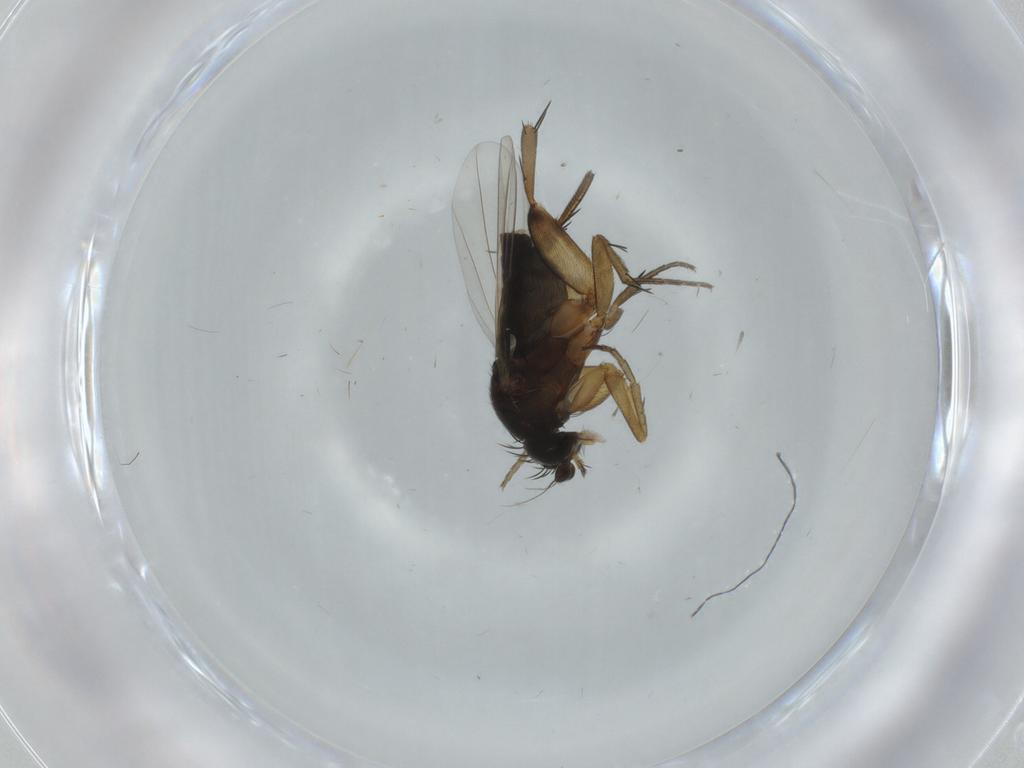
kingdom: Animalia
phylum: Arthropoda
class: Insecta
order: Diptera
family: Phoridae
